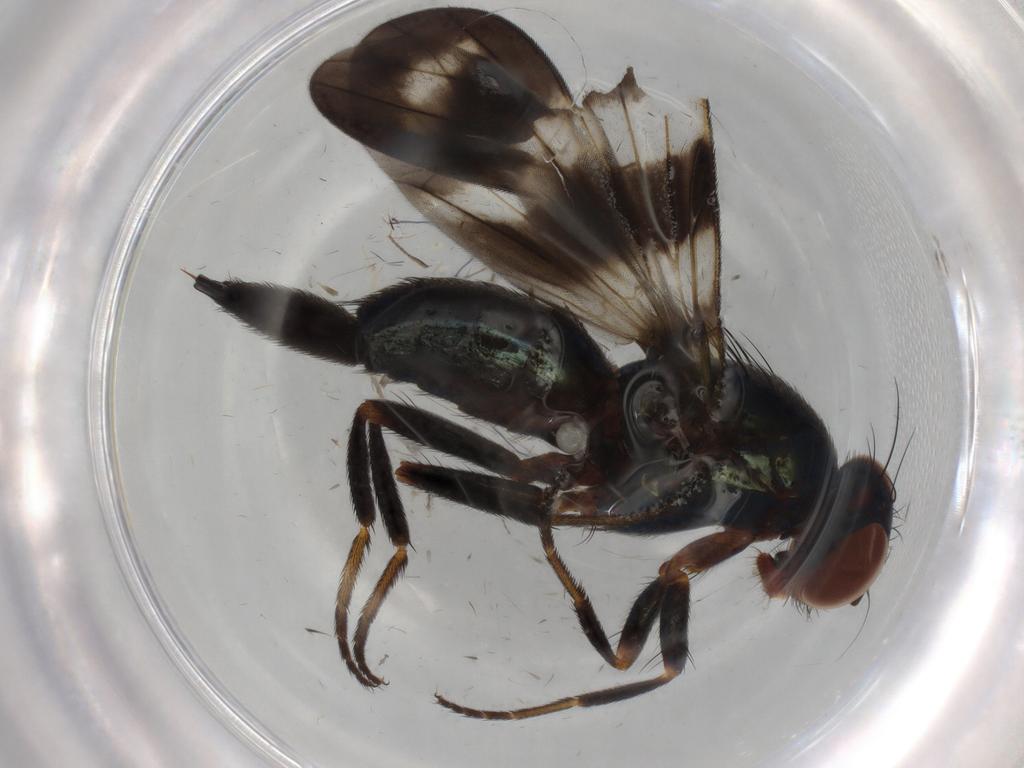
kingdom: Animalia
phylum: Arthropoda
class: Insecta
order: Diptera
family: Ulidiidae
